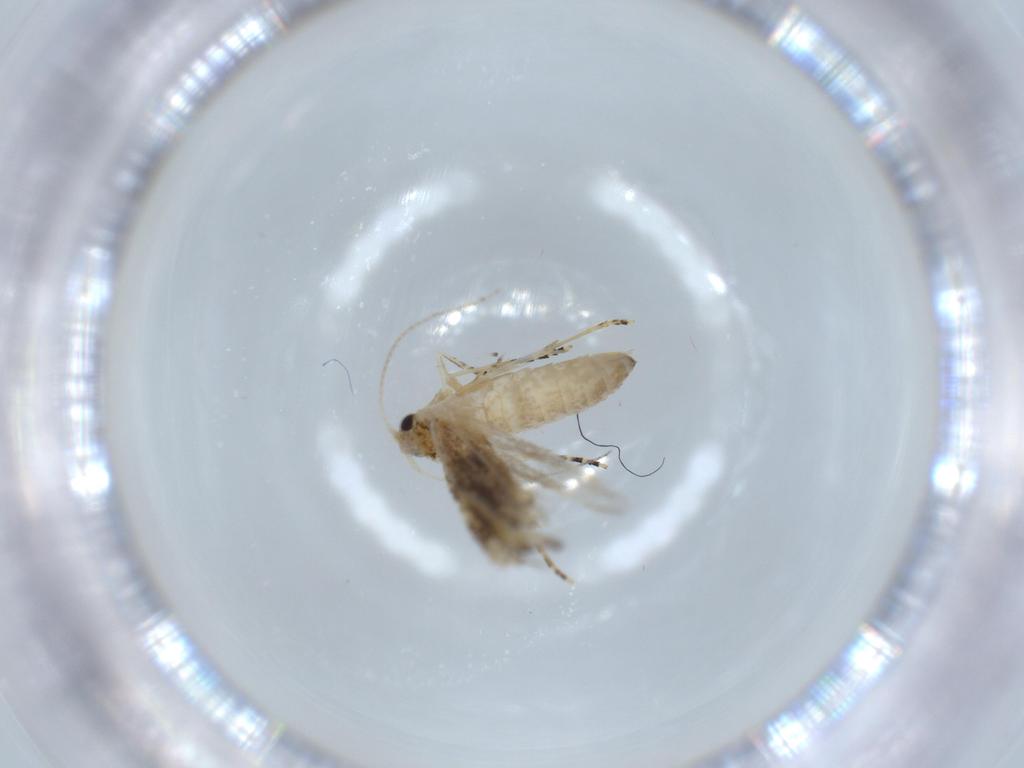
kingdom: Animalia
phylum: Arthropoda
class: Insecta
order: Lepidoptera
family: Bucculatricidae
